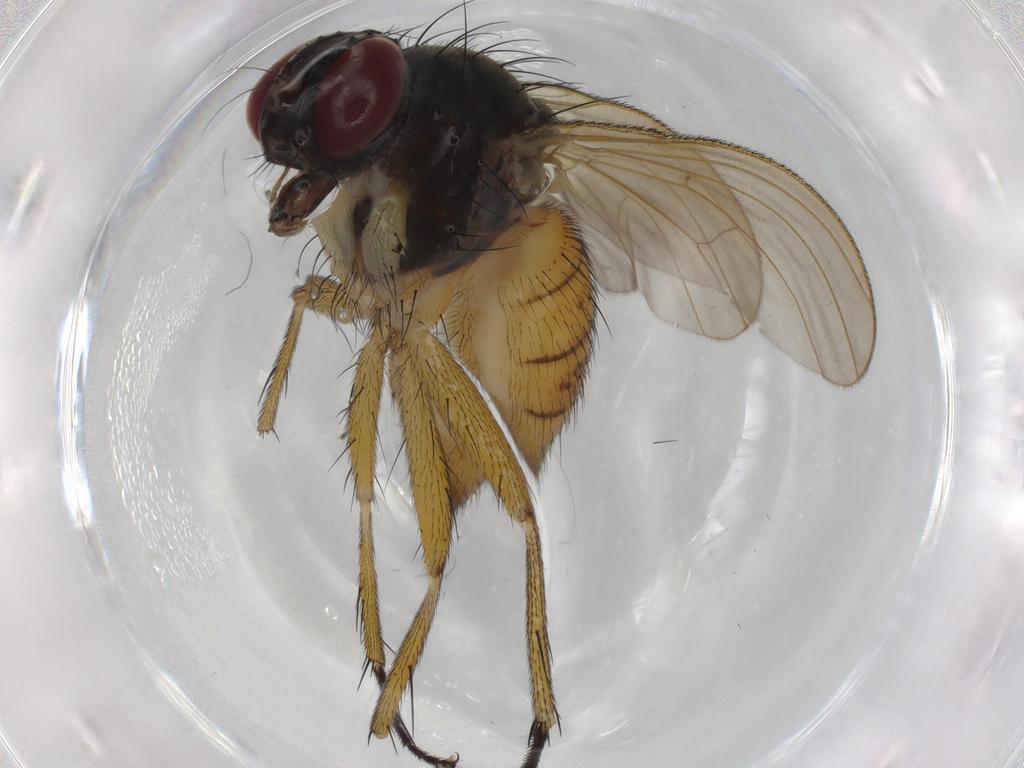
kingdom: Animalia
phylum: Arthropoda
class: Insecta
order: Diptera
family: Muscidae
